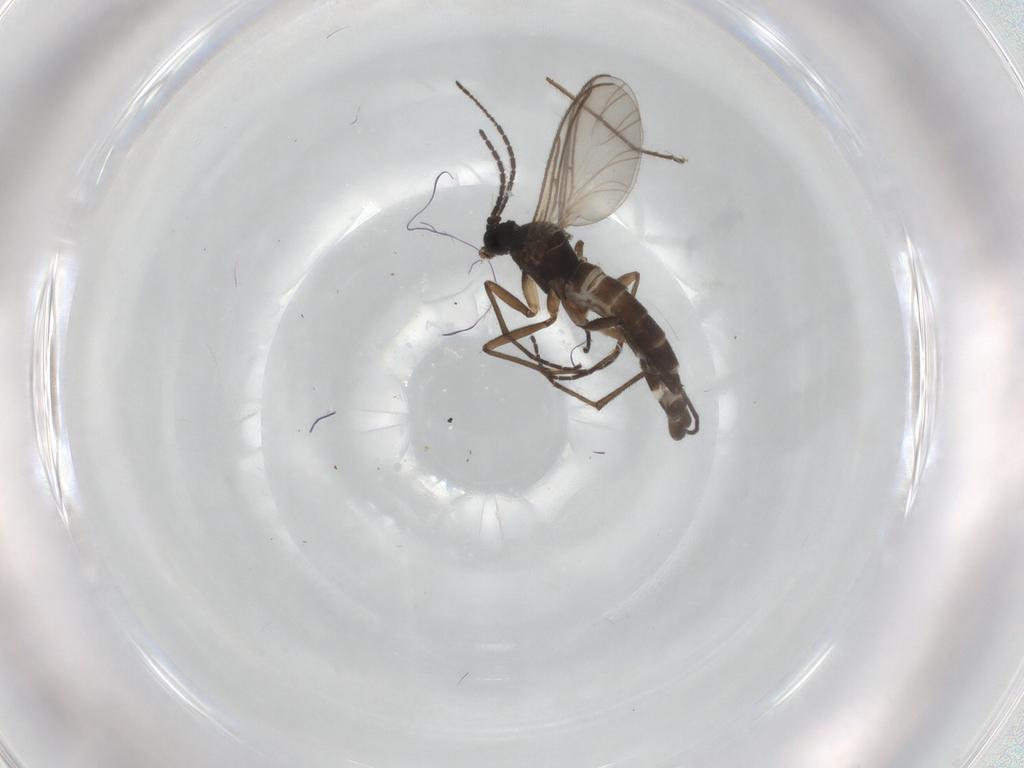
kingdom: Animalia
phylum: Arthropoda
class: Insecta
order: Diptera
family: Sciaridae
